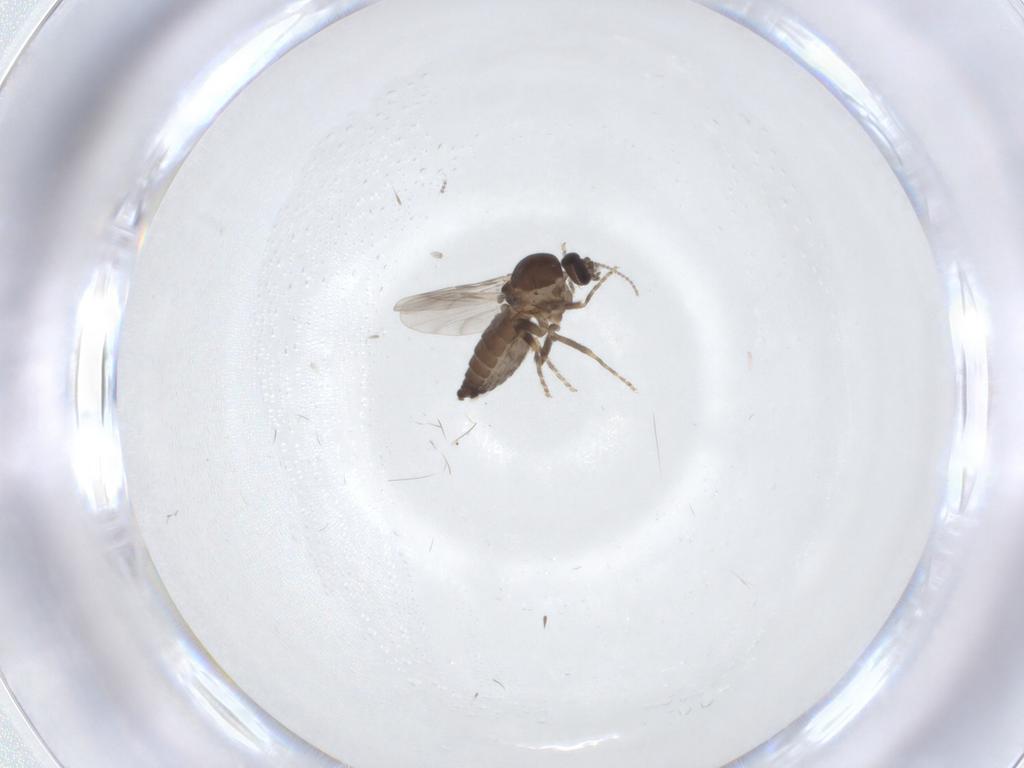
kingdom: Animalia
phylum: Arthropoda
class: Insecta
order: Diptera
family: Ceratopogonidae
